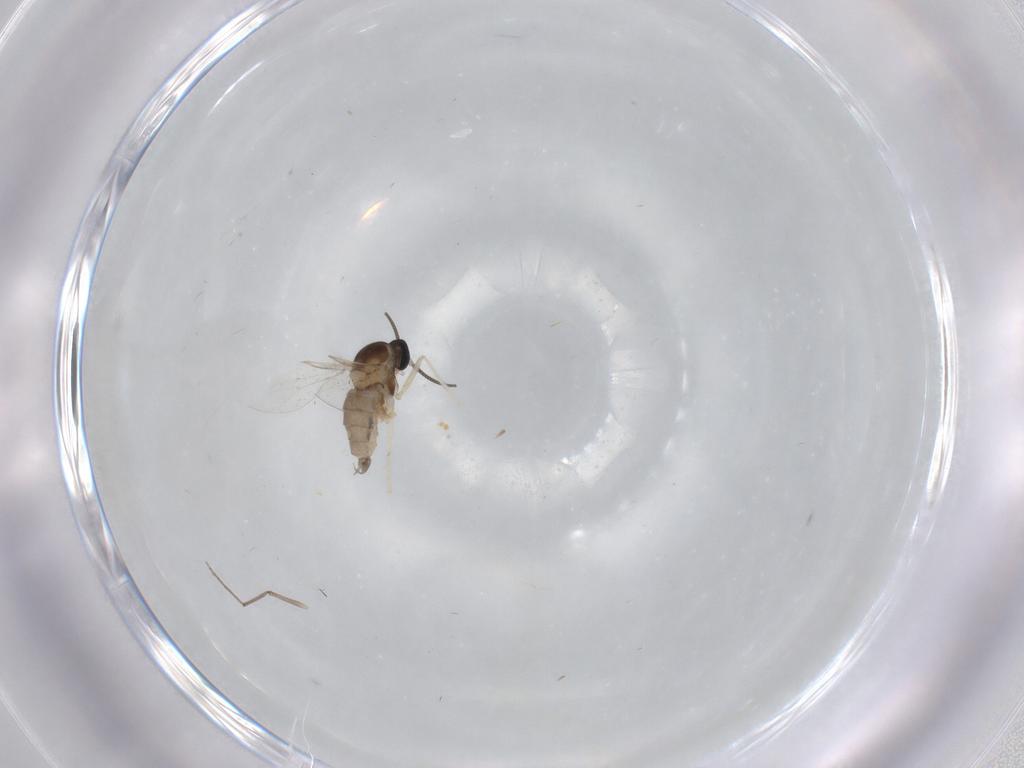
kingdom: Animalia
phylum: Arthropoda
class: Insecta
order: Diptera
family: Cecidomyiidae
